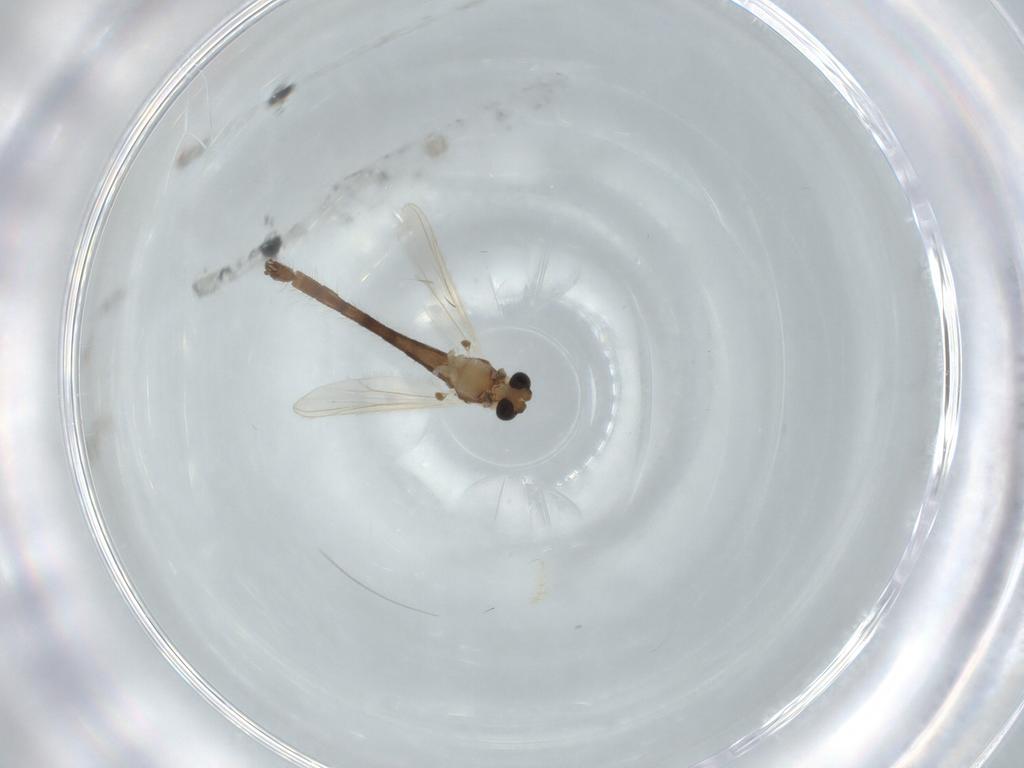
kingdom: Animalia
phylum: Arthropoda
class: Insecta
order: Diptera
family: Chironomidae
